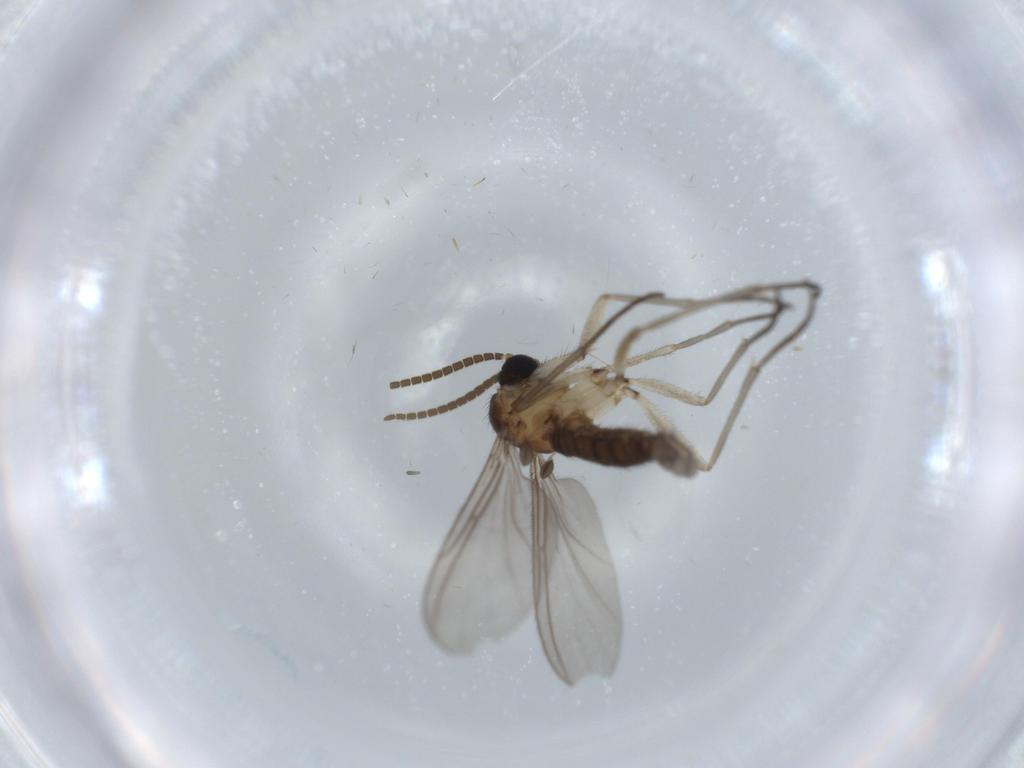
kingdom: Animalia
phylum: Arthropoda
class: Insecta
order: Diptera
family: Sciaridae
